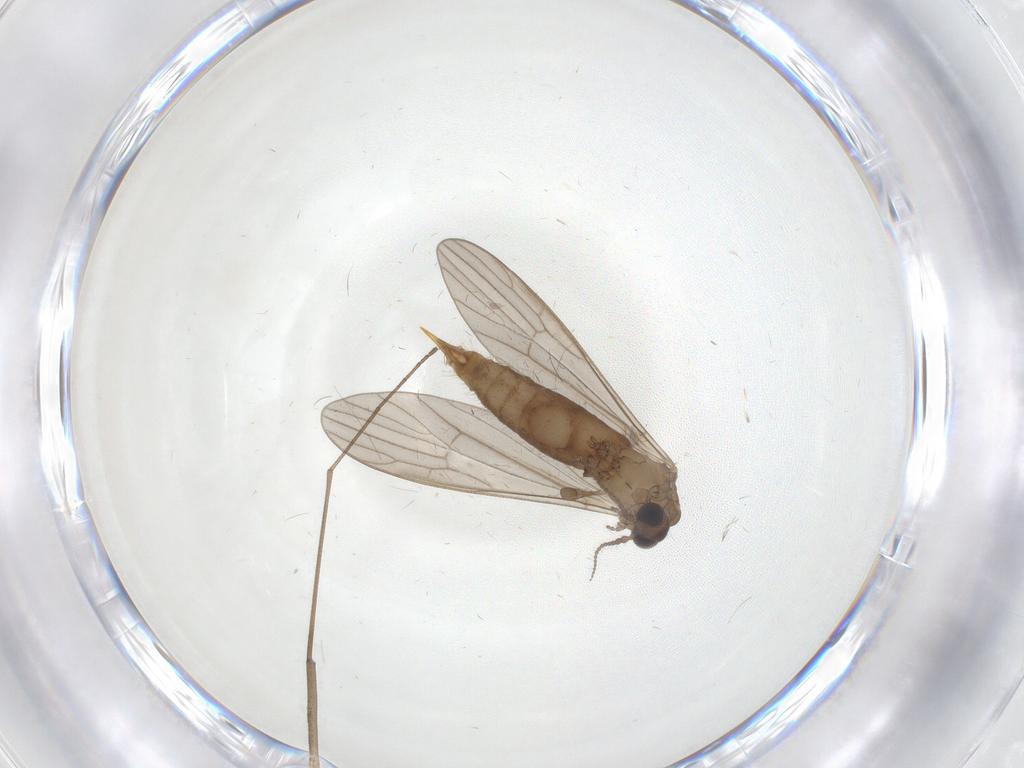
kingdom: Animalia
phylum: Arthropoda
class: Insecta
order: Diptera
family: Limoniidae
